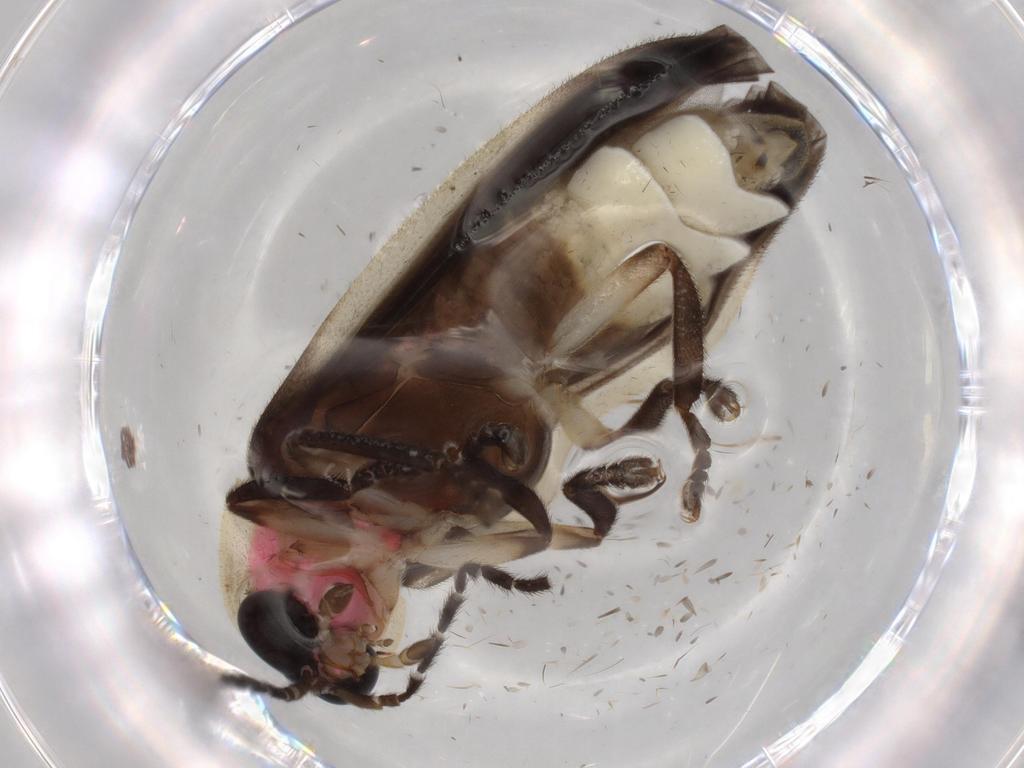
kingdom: Animalia
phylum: Arthropoda
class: Insecta
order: Coleoptera
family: Lampyridae
